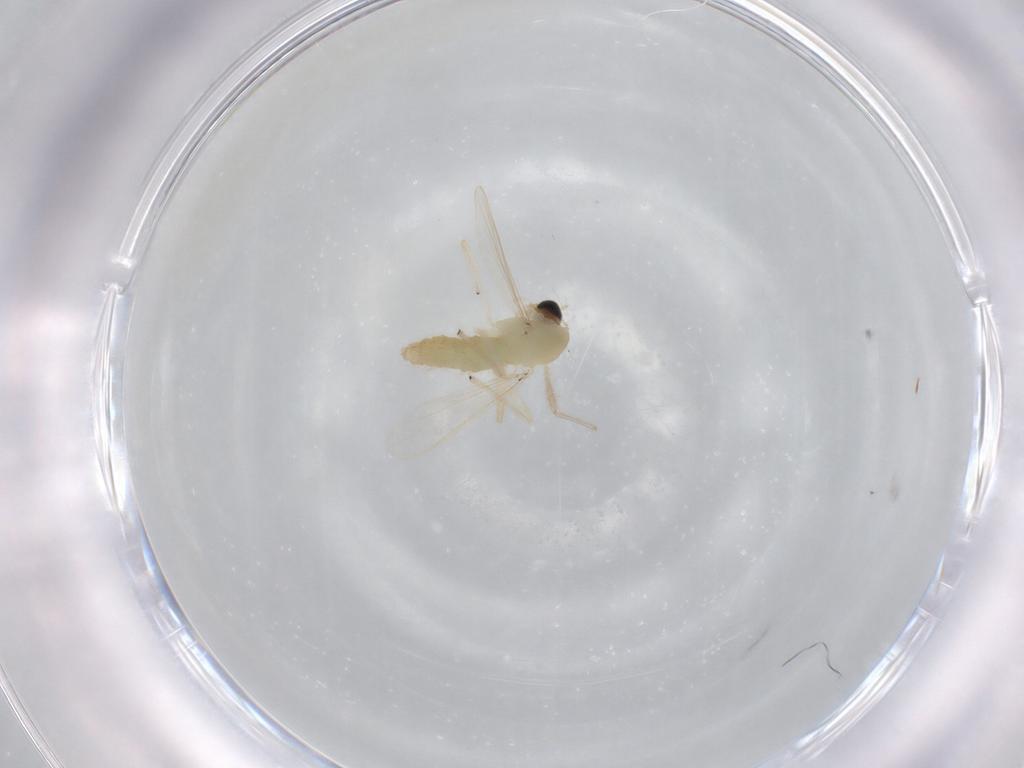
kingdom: Animalia
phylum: Arthropoda
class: Insecta
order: Diptera
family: Chironomidae
